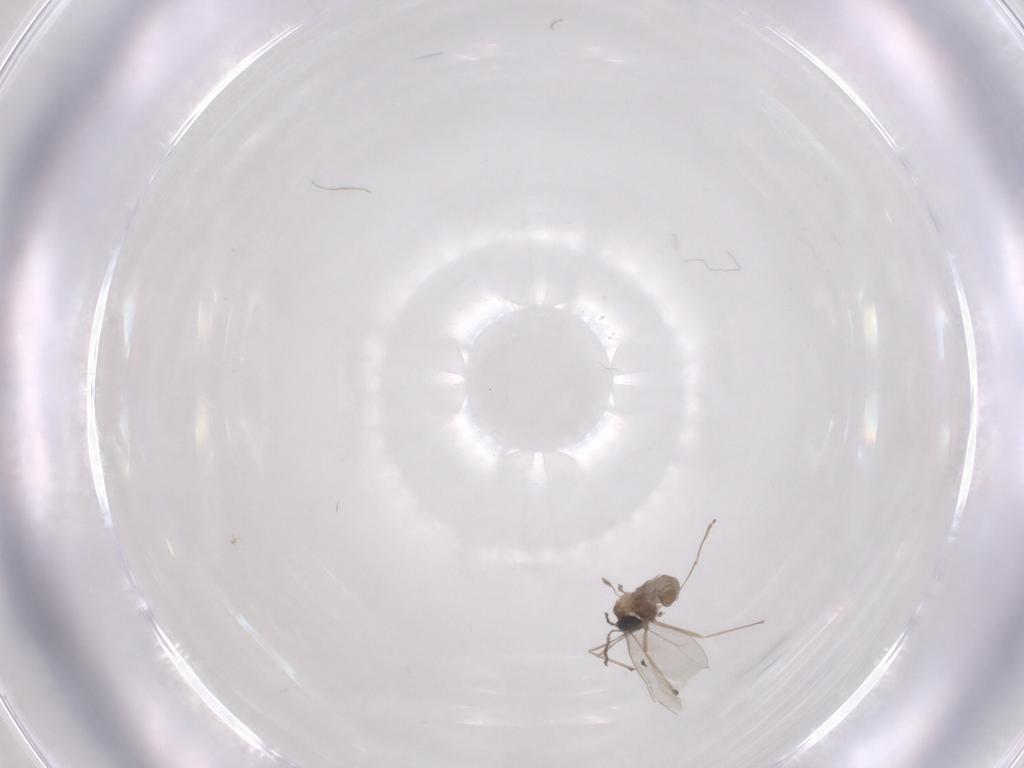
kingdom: Animalia
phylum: Arthropoda
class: Insecta
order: Diptera
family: Cecidomyiidae
